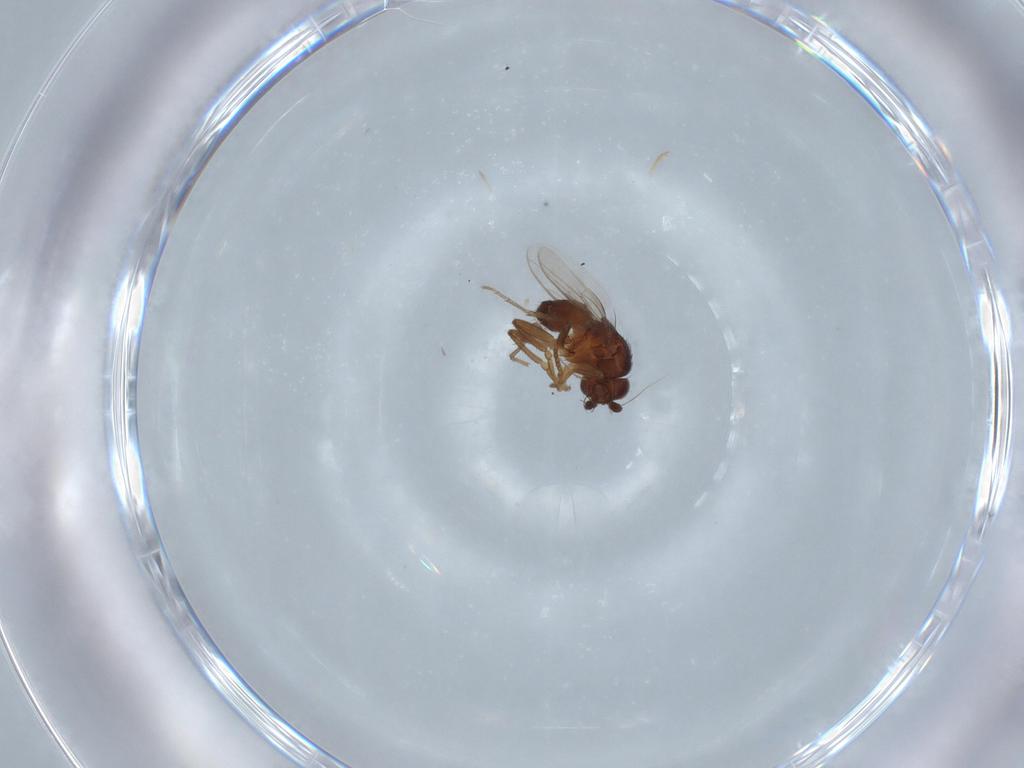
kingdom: Animalia
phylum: Arthropoda
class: Insecta
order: Diptera
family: Sphaeroceridae
